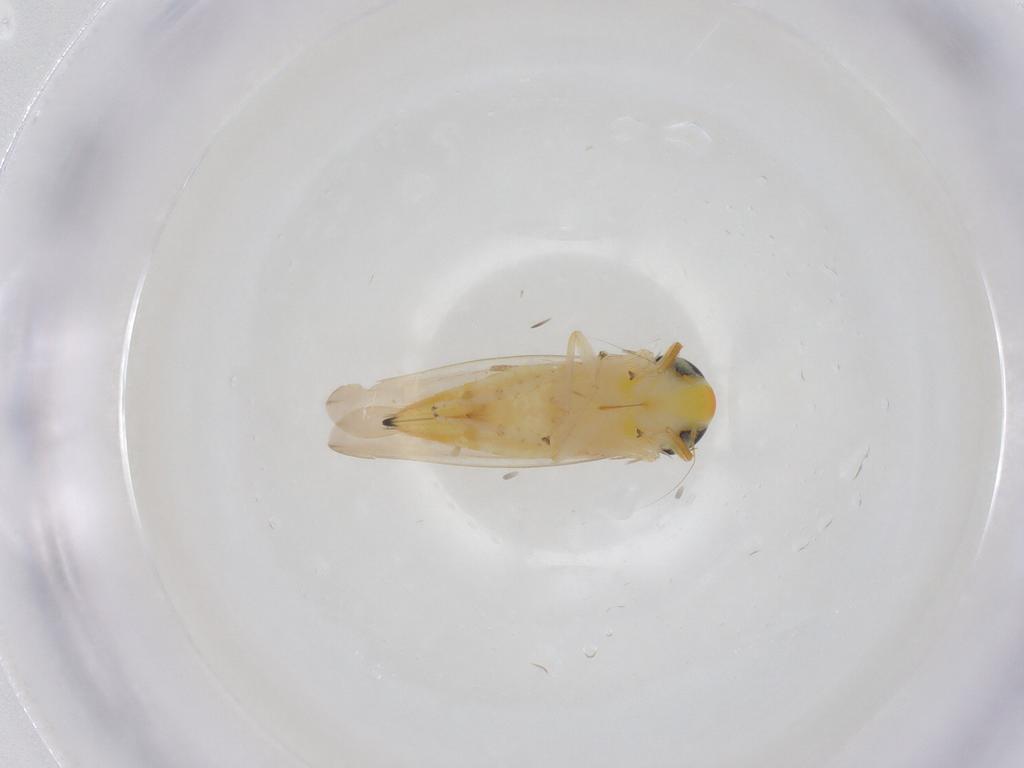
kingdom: Animalia
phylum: Arthropoda
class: Insecta
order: Hemiptera
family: Cicadellidae
